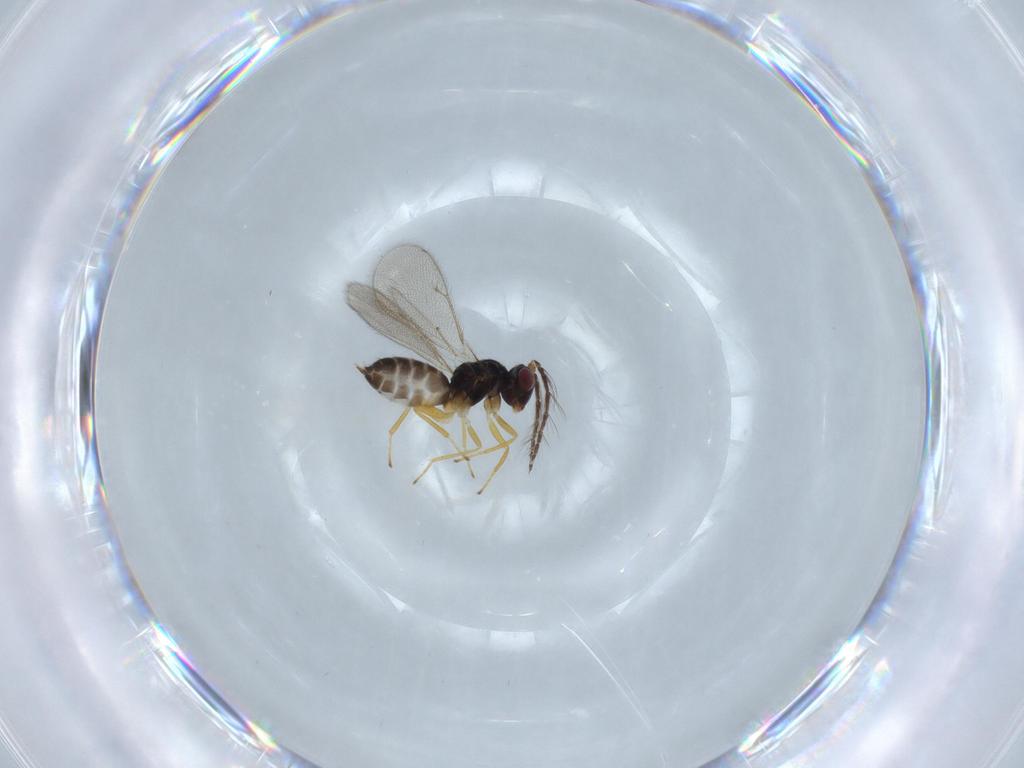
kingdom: Animalia
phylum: Arthropoda
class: Insecta
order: Hymenoptera
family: Eulophidae
